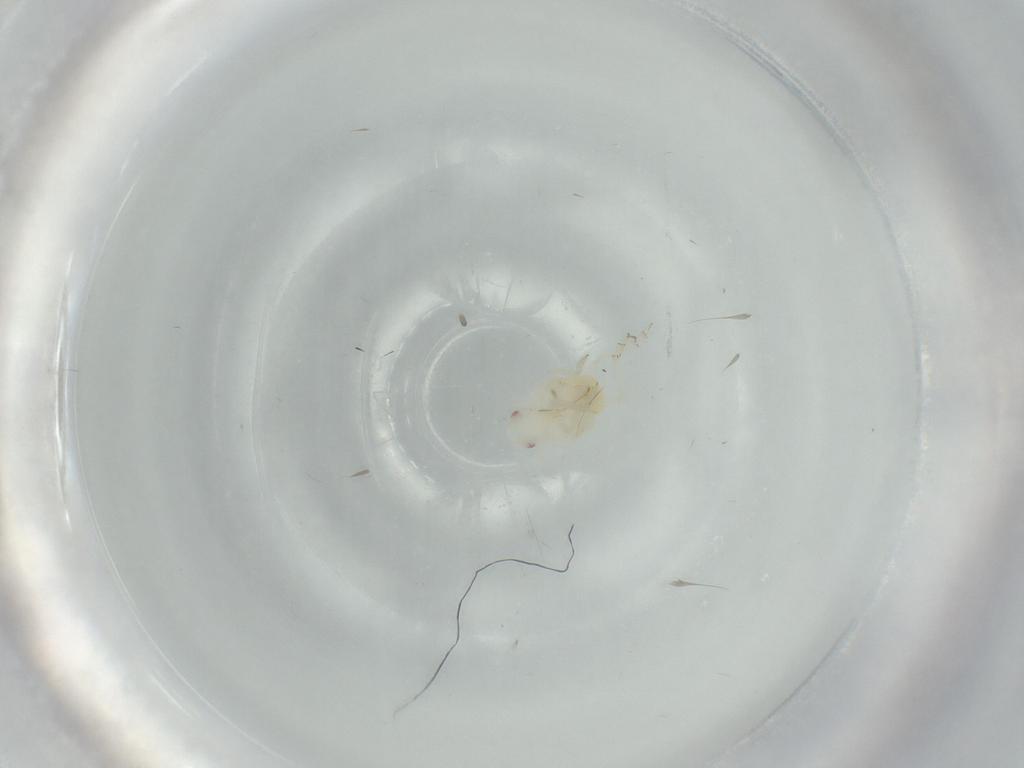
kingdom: Animalia
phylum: Arthropoda
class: Insecta
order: Hemiptera
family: Flatidae
